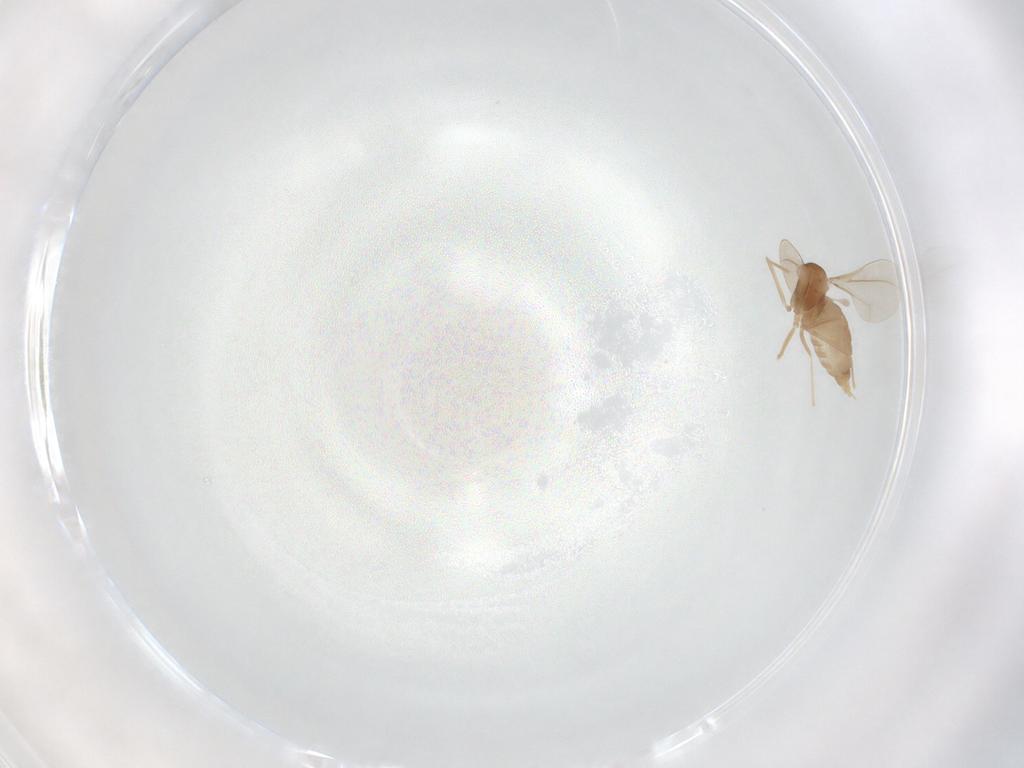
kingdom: Animalia
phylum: Arthropoda
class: Insecta
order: Diptera
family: Cecidomyiidae
